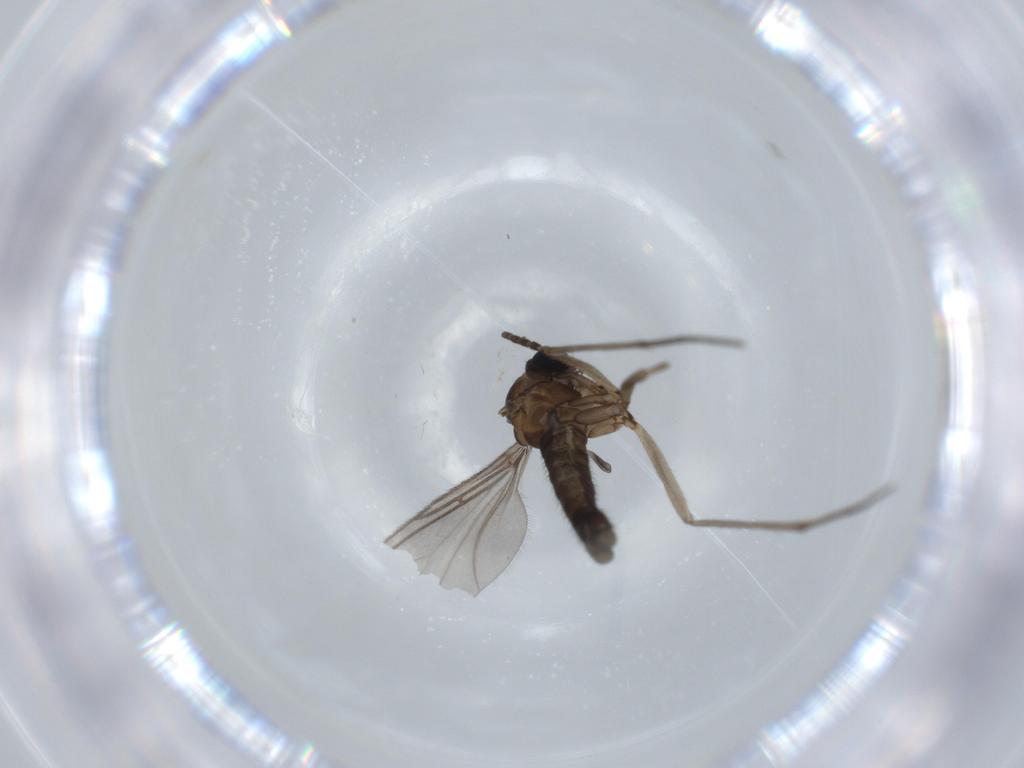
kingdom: Animalia
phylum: Arthropoda
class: Insecta
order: Diptera
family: Sciaridae
